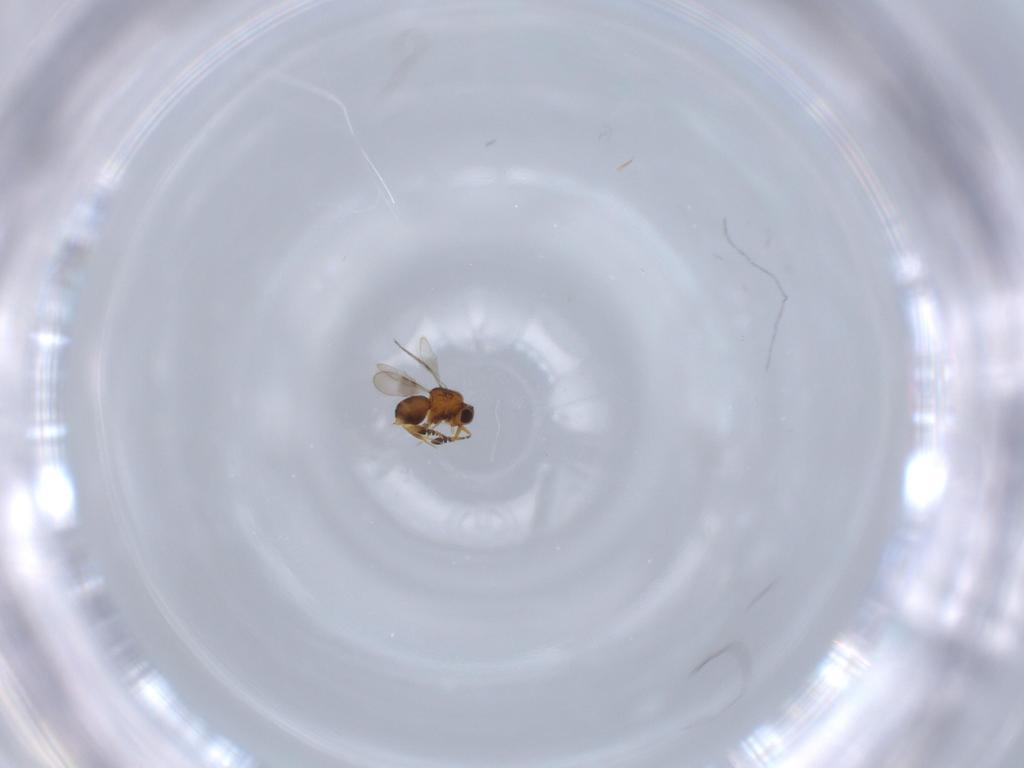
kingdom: Animalia
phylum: Arthropoda
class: Insecta
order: Hymenoptera
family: Braconidae
